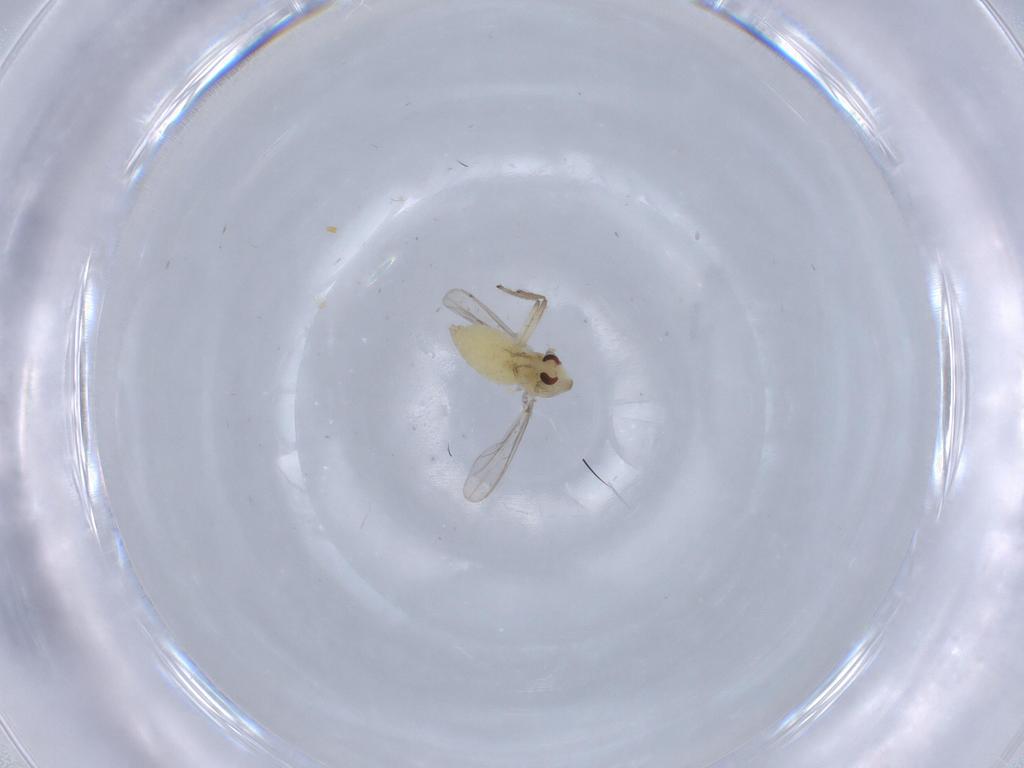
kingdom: Animalia
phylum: Arthropoda
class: Insecta
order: Diptera
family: Chironomidae
